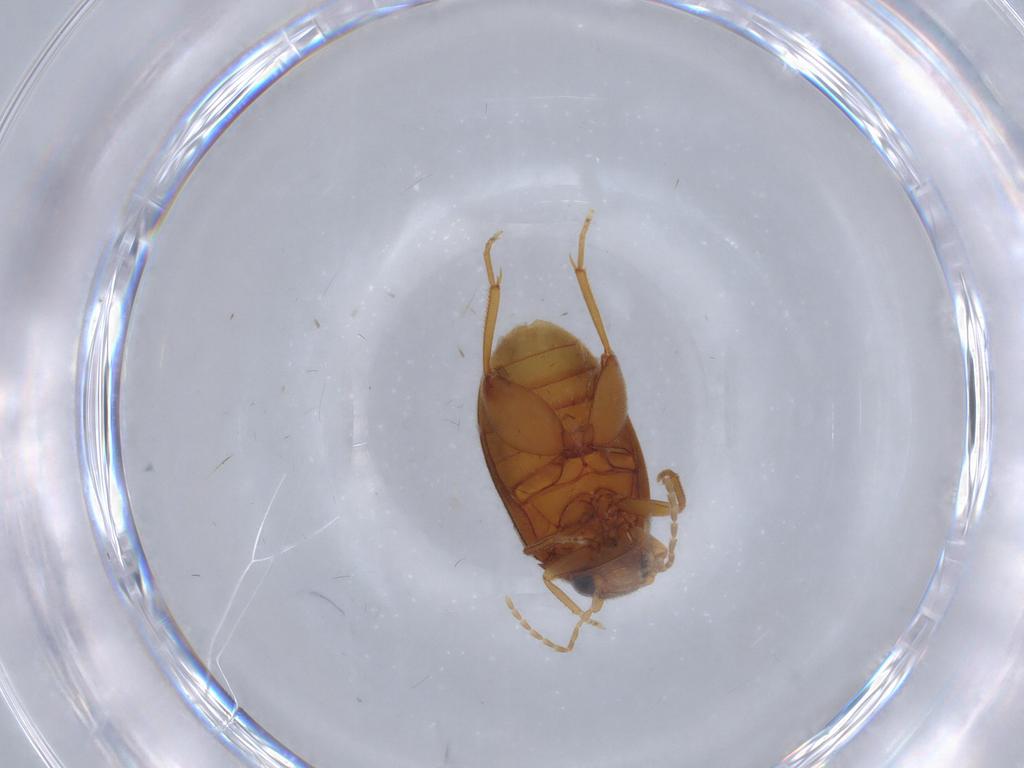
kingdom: Animalia
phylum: Arthropoda
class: Insecta
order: Coleoptera
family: Scirtidae
